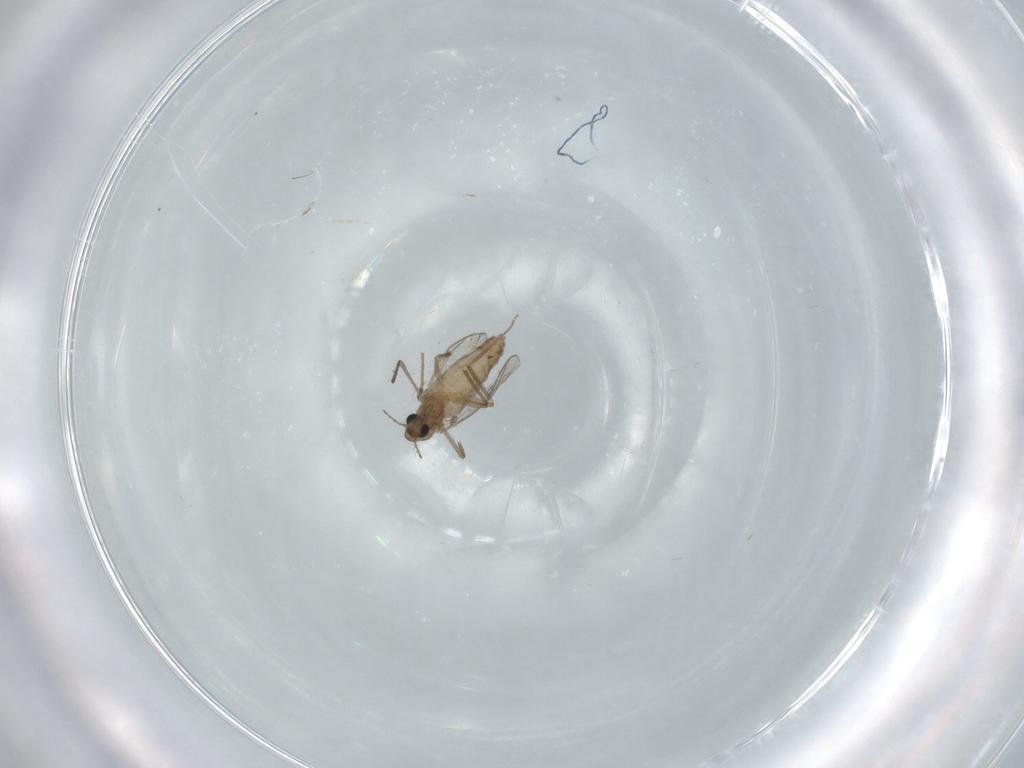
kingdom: Animalia
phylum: Arthropoda
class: Insecta
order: Diptera
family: Chironomidae
